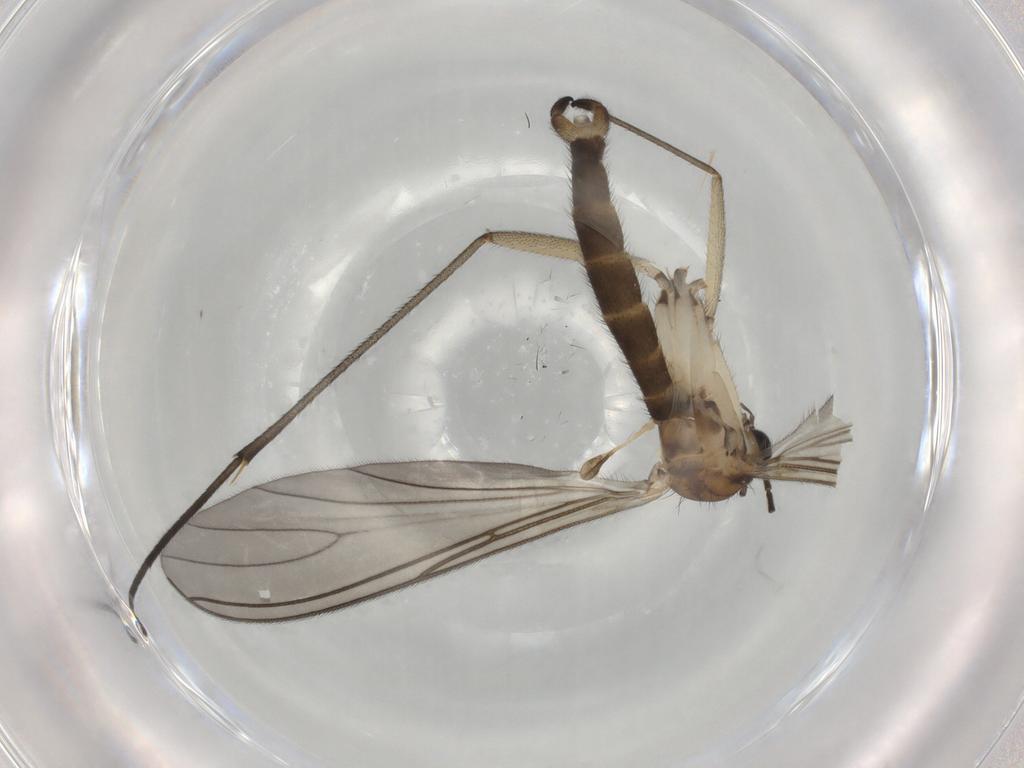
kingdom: Animalia
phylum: Arthropoda
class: Insecta
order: Diptera
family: Sciaridae
